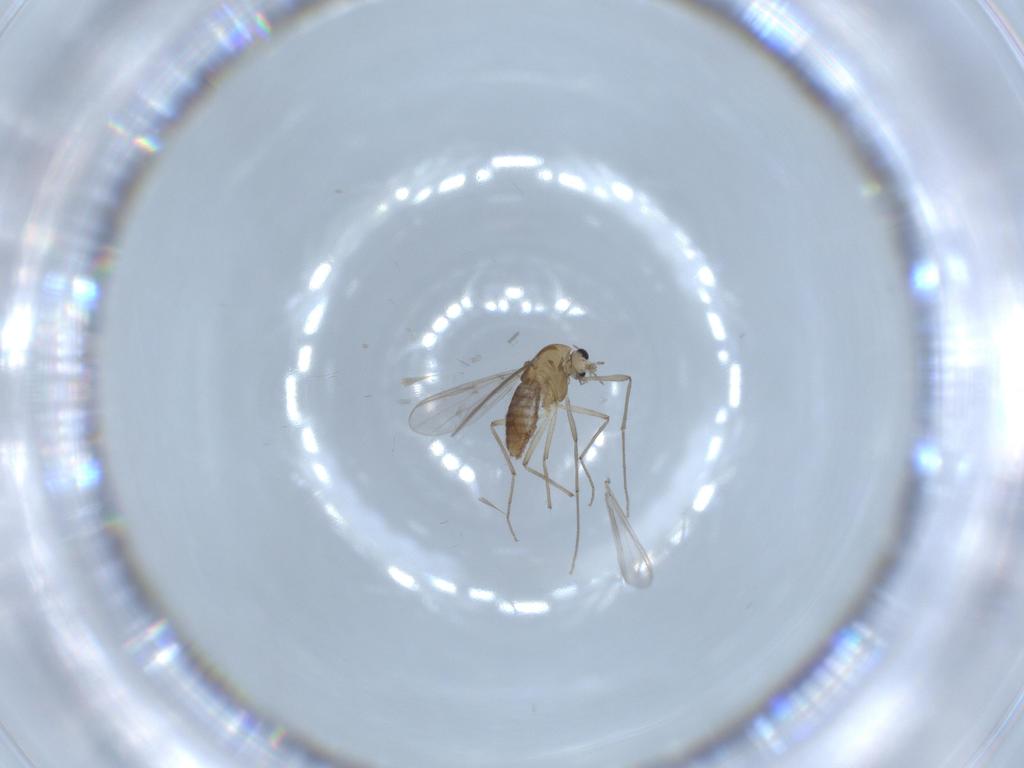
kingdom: Animalia
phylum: Arthropoda
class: Insecta
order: Diptera
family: Chironomidae
